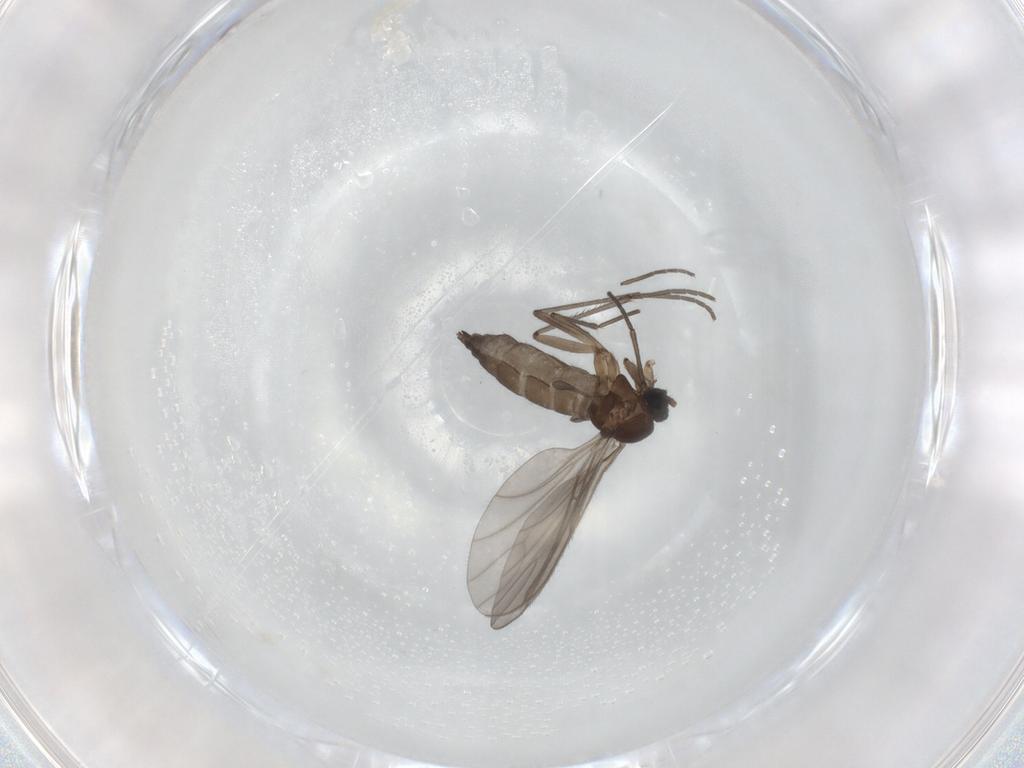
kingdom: Animalia
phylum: Arthropoda
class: Insecta
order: Diptera
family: Sciaridae
